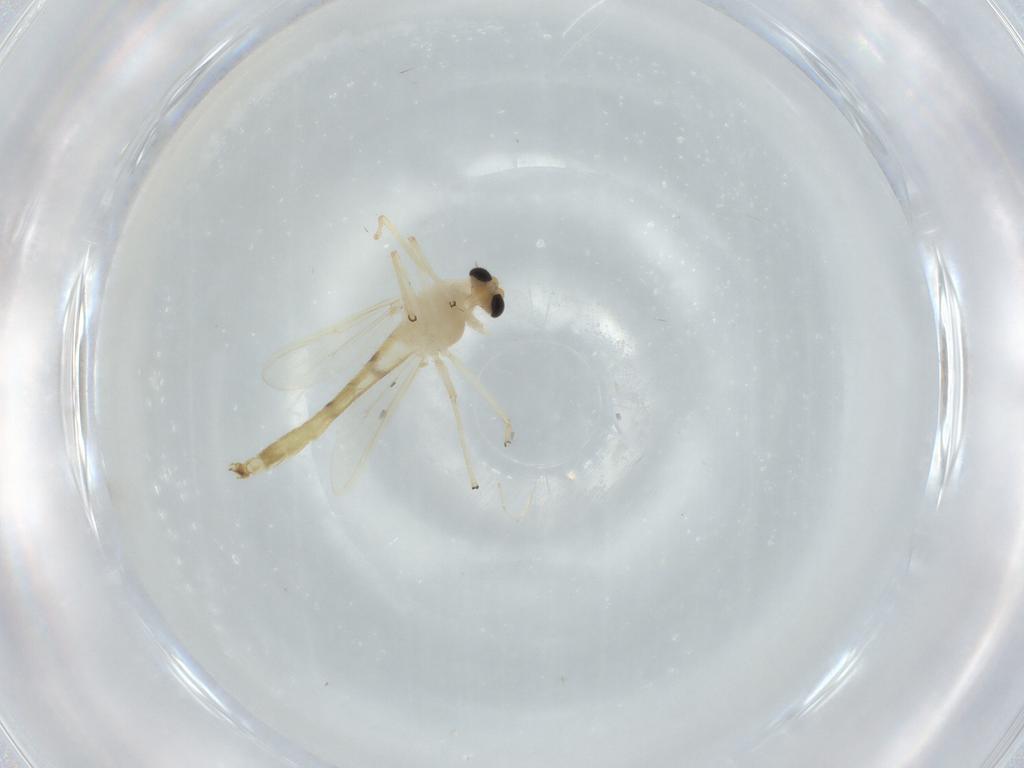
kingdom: Animalia
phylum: Arthropoda
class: Insecta
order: Diptera
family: Chironomidae
